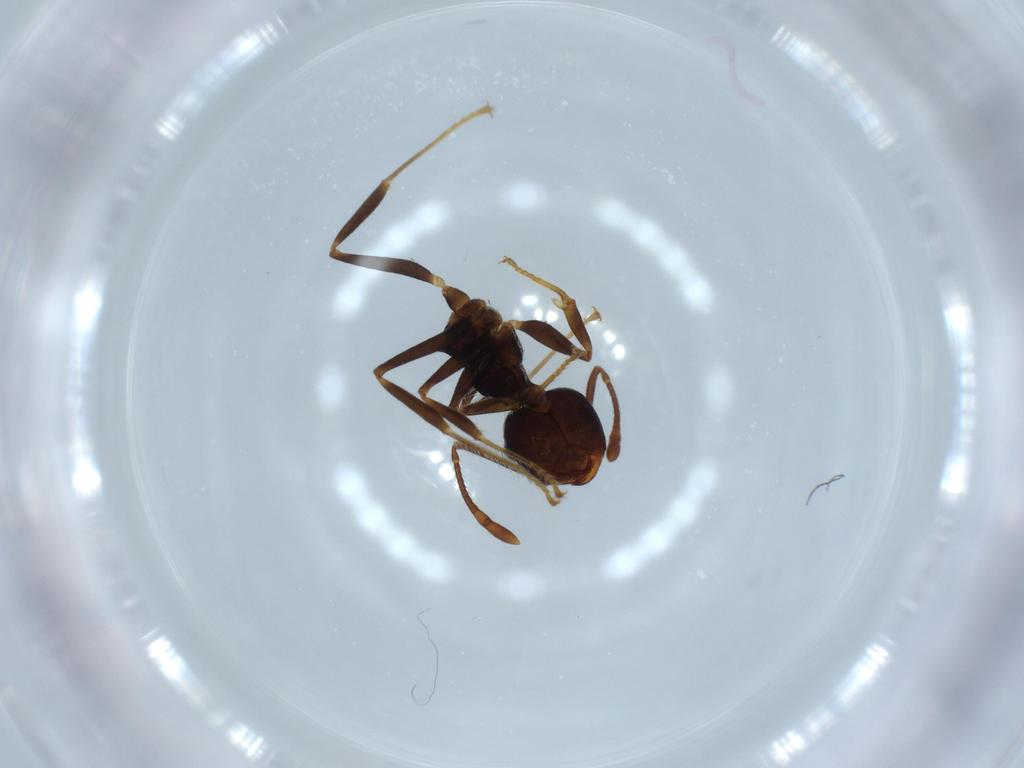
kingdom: Animalia
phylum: Arthropoda
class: Insecta
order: Hymenoptera
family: Formicidae
